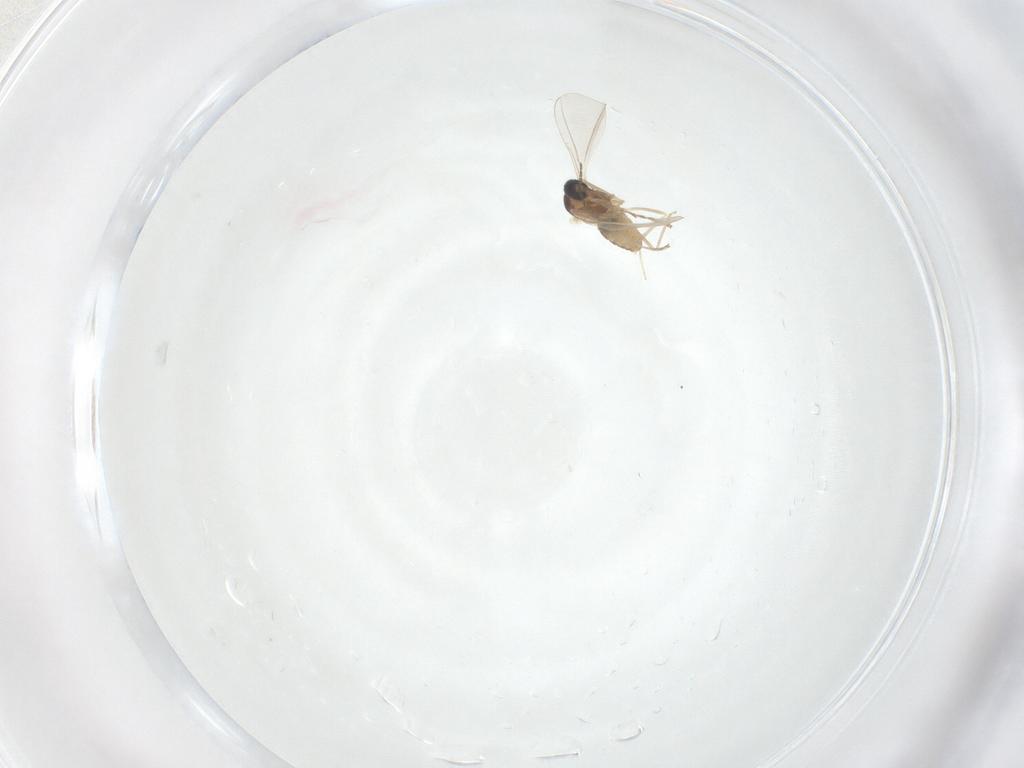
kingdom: Animalia
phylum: Arthropoda
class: Insecta
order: Diptera
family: Cecidomyiidae
